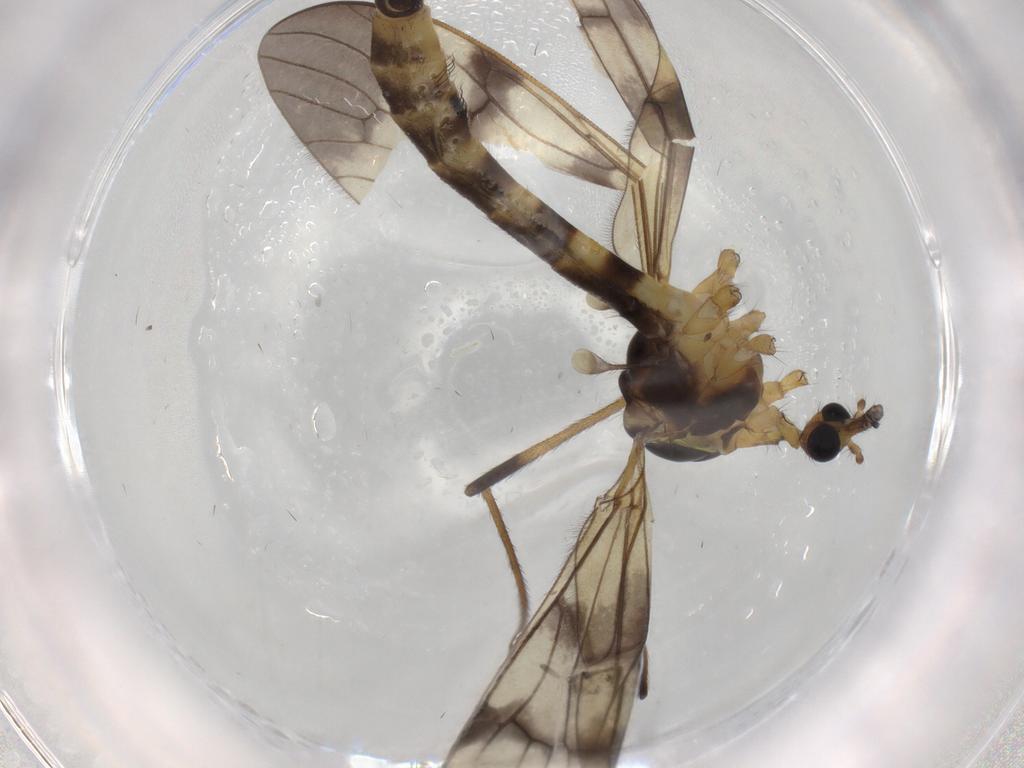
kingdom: Animalia
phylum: Arthropoda
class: Insecta
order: Diptera
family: Limoniidae
